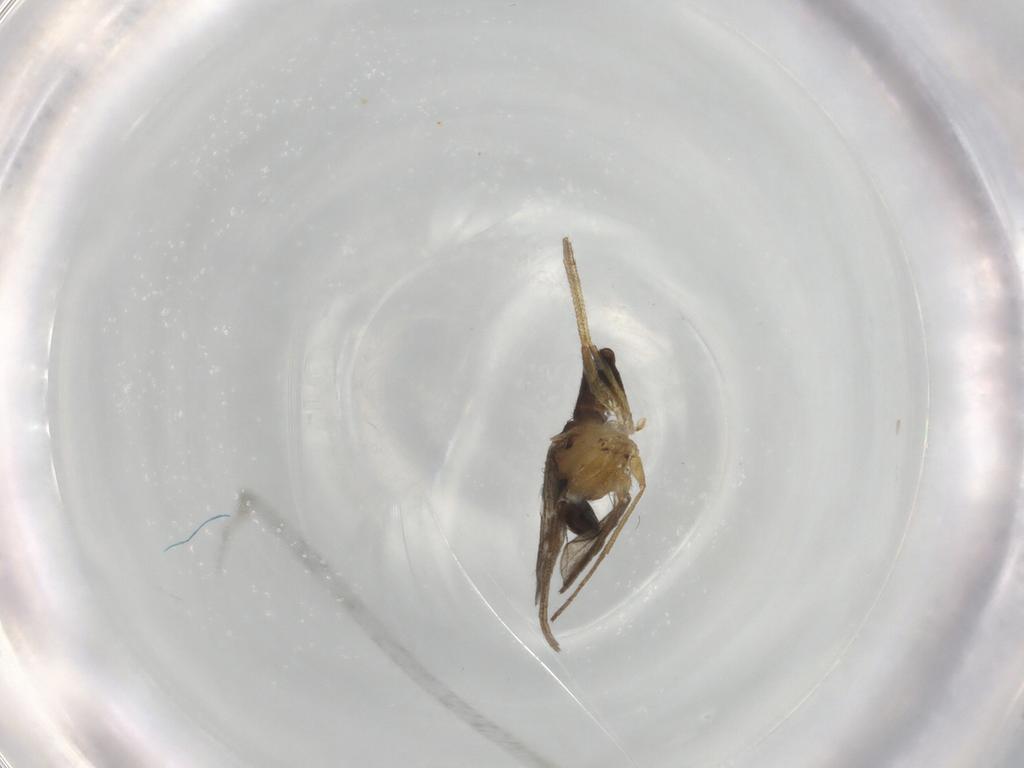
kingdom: Animalia
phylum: Arthropoda
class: Insecta
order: Diptera
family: Dolichopodidae
